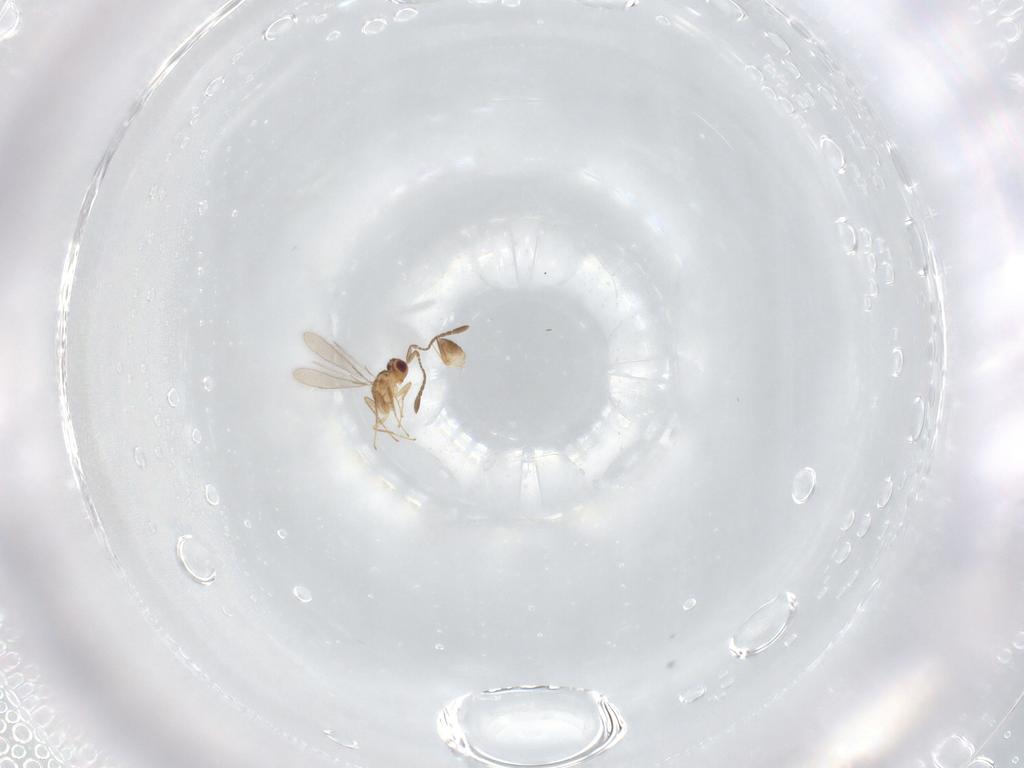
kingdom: Animalia
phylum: Arthropoda
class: Insecta
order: Hymenoptera
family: Mymaridae
